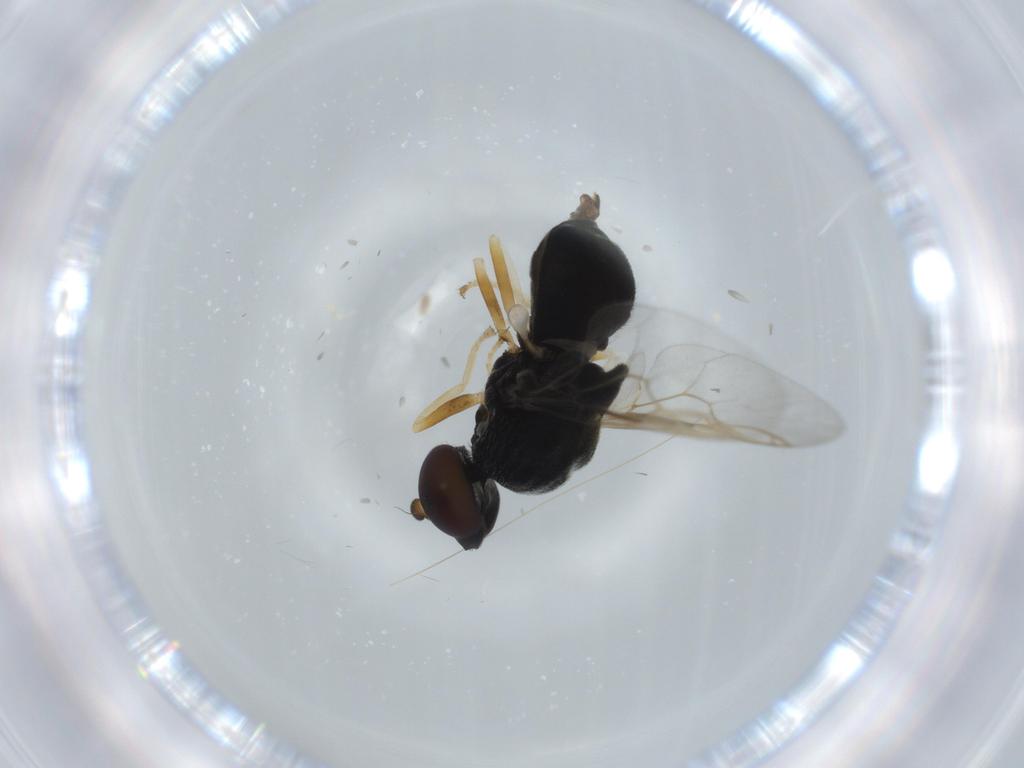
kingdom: Animalia
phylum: Arthropoda
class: Insecta
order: Diptera
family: Stratiomyidae
